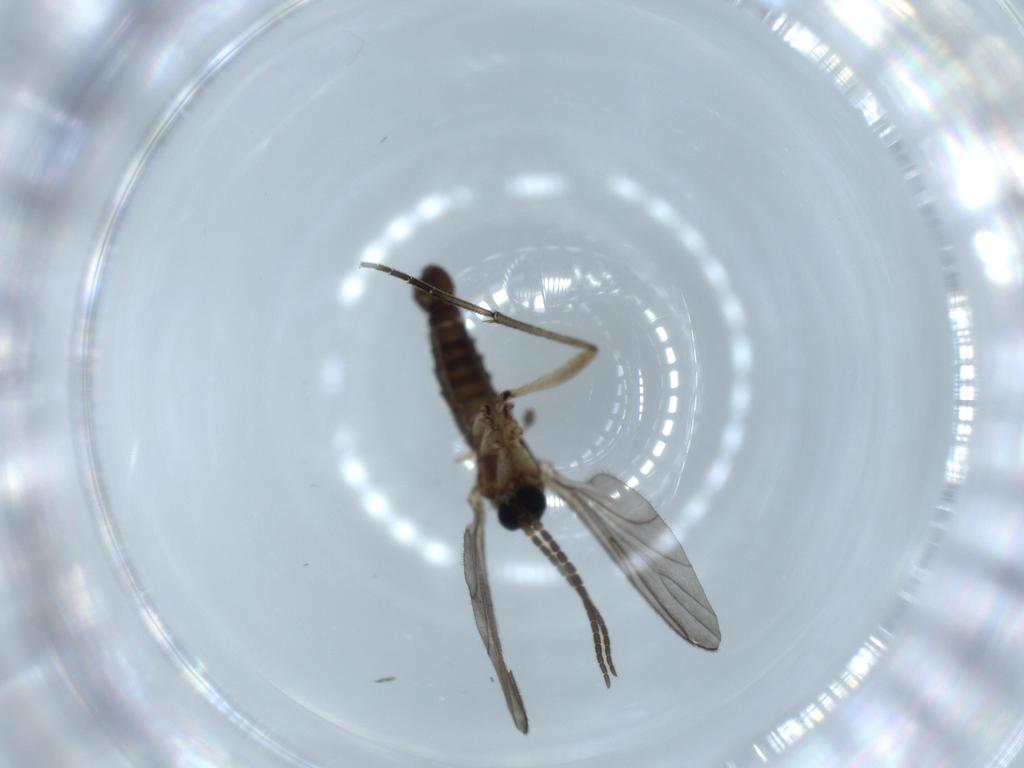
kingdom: Animalia
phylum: Arthropoda
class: Insecta
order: Diptera
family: Sciaridae
